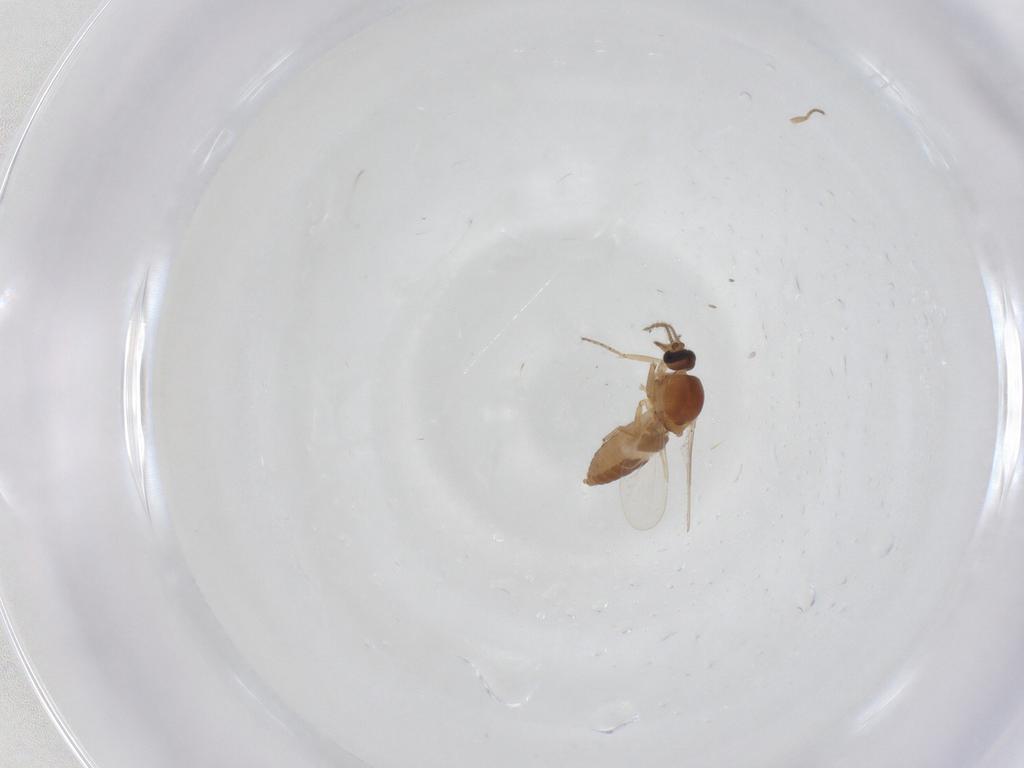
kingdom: Animalia
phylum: Arthropoda
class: Insecta
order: Diptera
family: Ceratopogonidae
